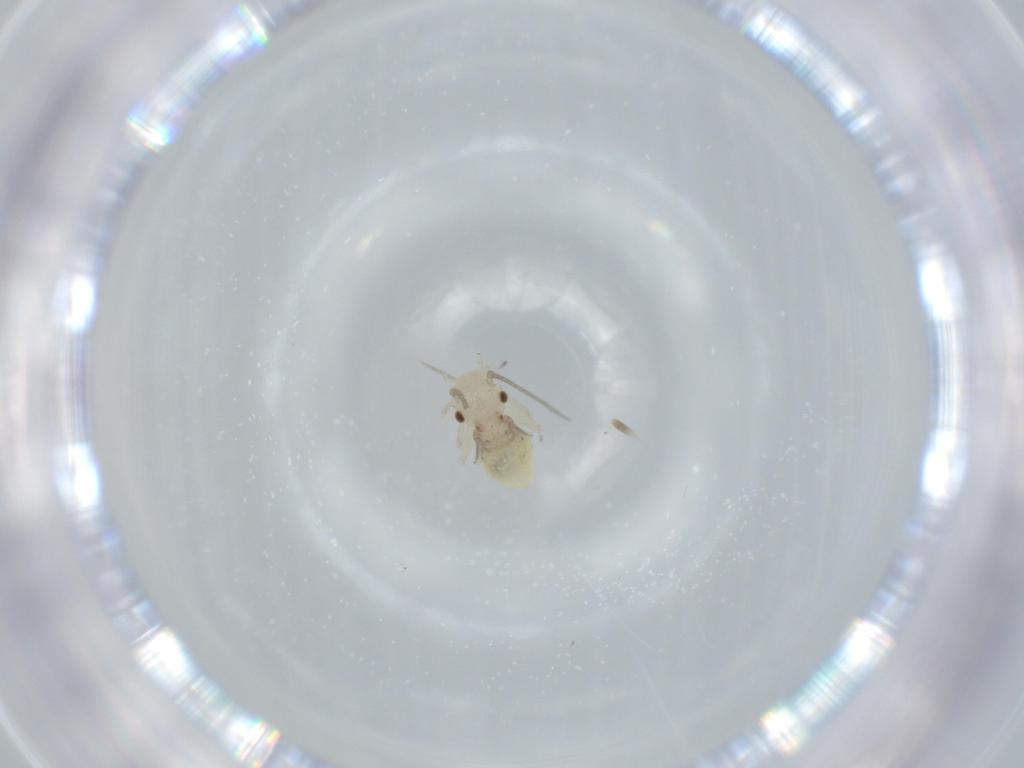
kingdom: Animalia
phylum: Arthropoda
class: Insecta
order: Psocodea
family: Caeciliusidae
